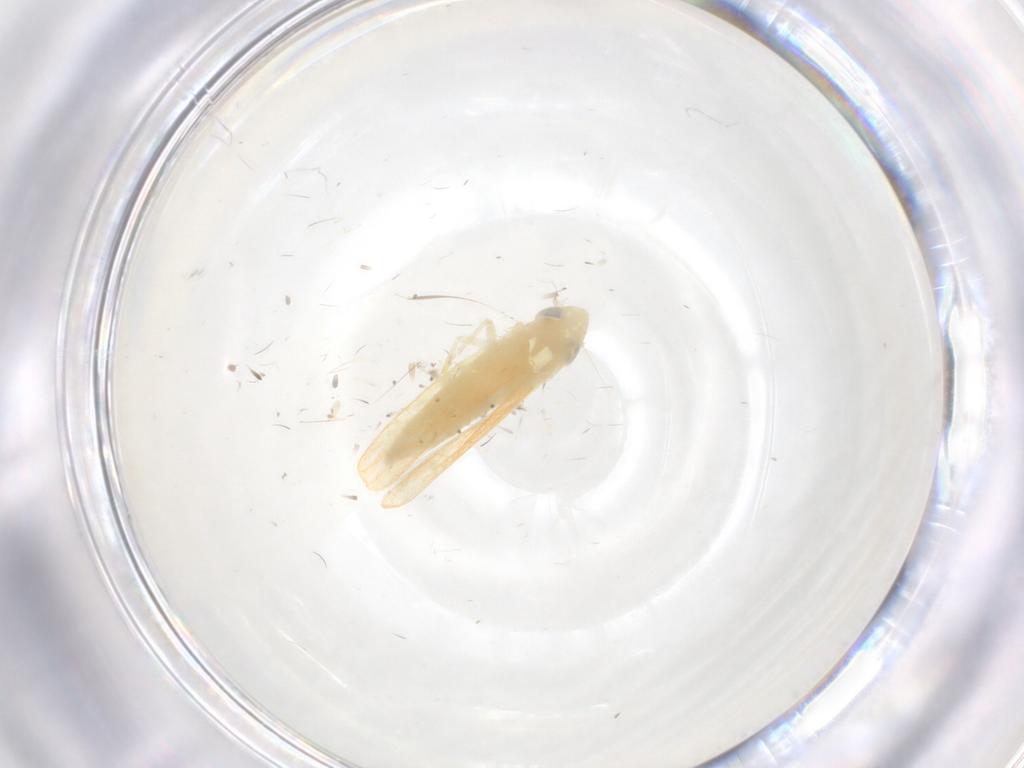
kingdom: Animalia
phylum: Arthropoda
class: Insecta
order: Hemiptera
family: Cicadellidae
